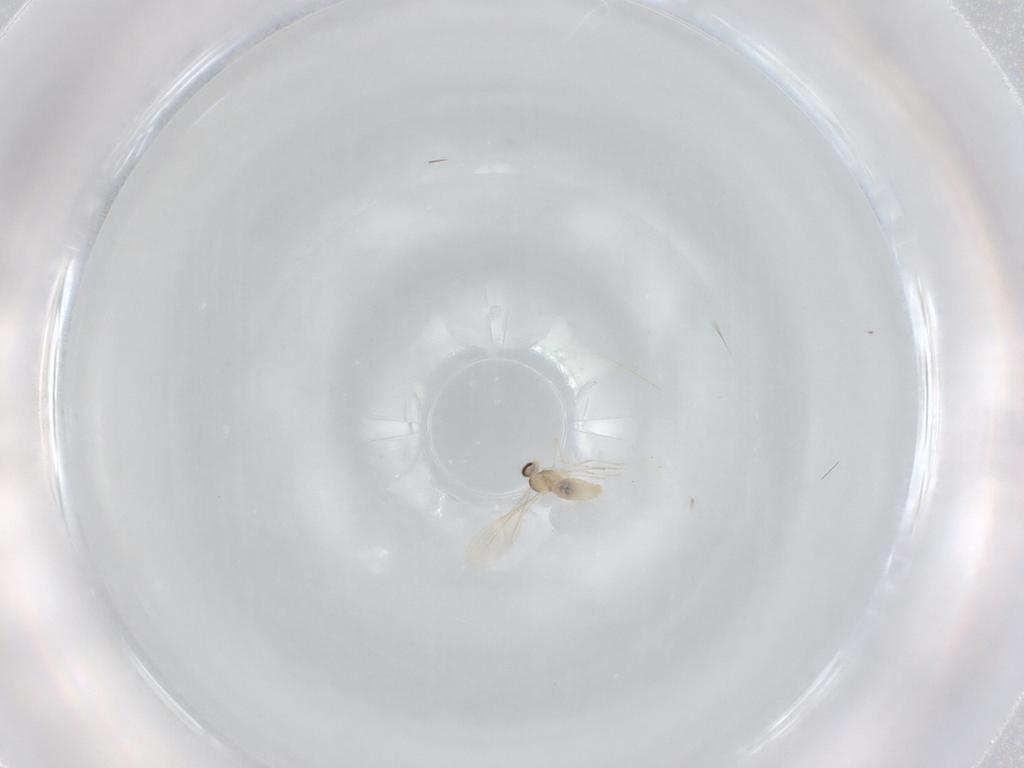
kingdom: Animalia
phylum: Arthropoda
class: Insecta
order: Diptera
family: Cecidomyiidae
